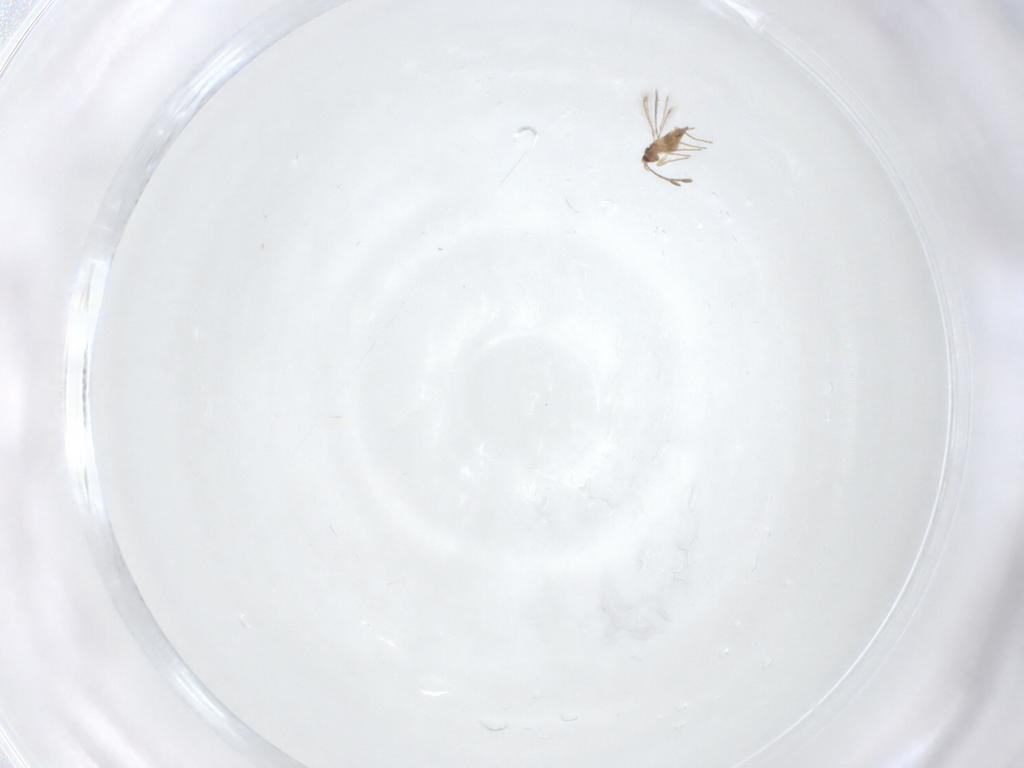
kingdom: Animalia
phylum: Arthropoda
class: Insecta
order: Hymenoptera
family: Mymaridae
